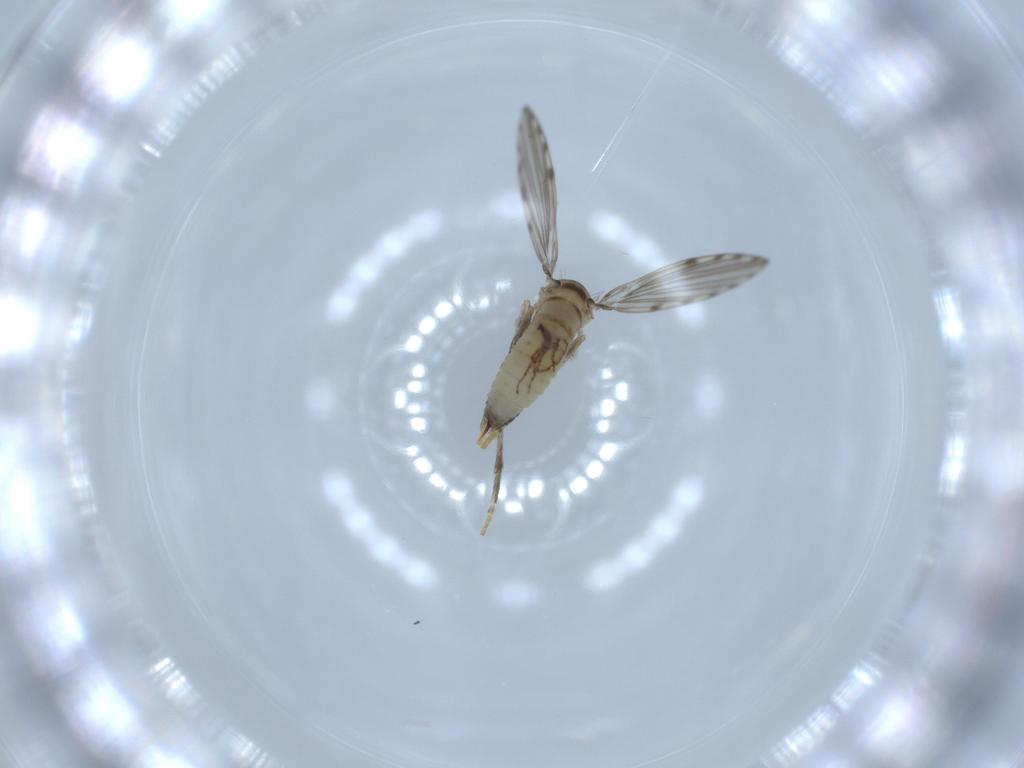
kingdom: Animalia
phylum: Arthropoda
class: Insecta
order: Diptera
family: Psychodidae
